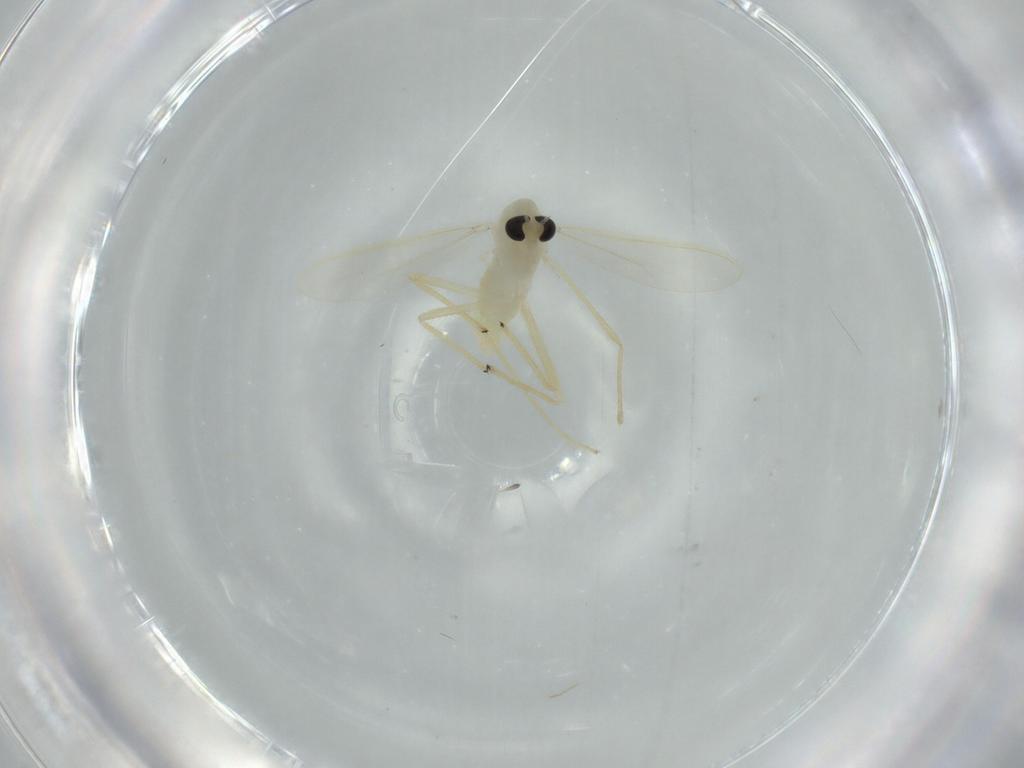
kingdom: Animalia
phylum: Arthropoda
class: Insecta
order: Diptera
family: Chironomidae
